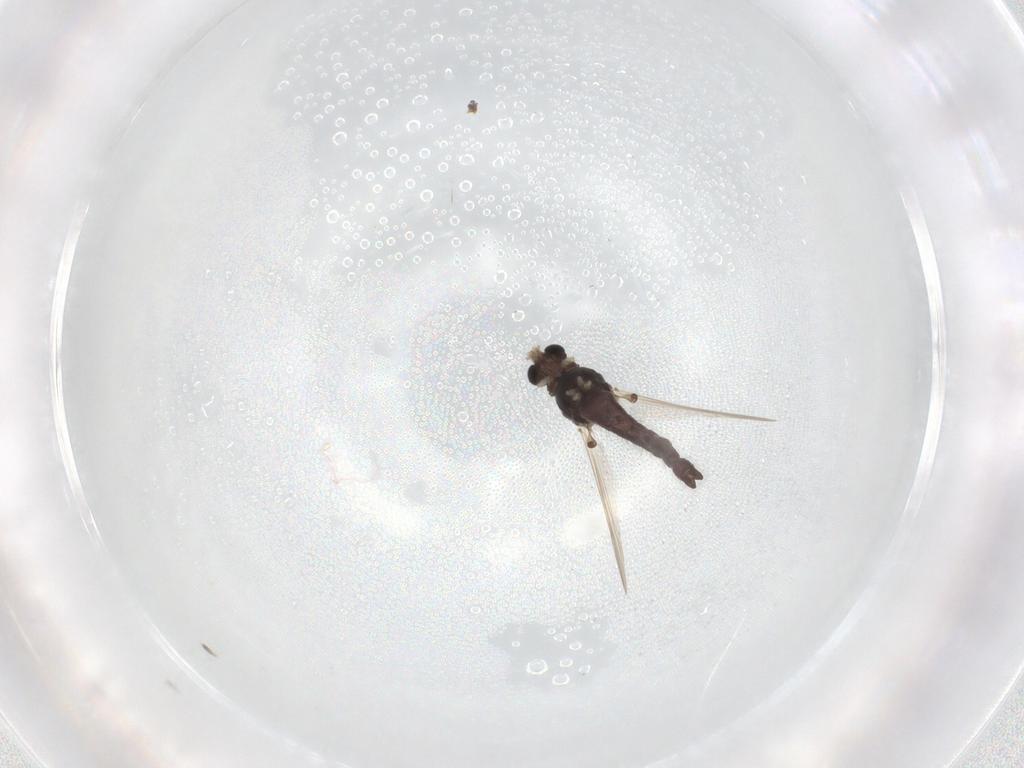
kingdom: Animalia
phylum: Arthropoda
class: Insecta
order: Diptera
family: Chironomidae
